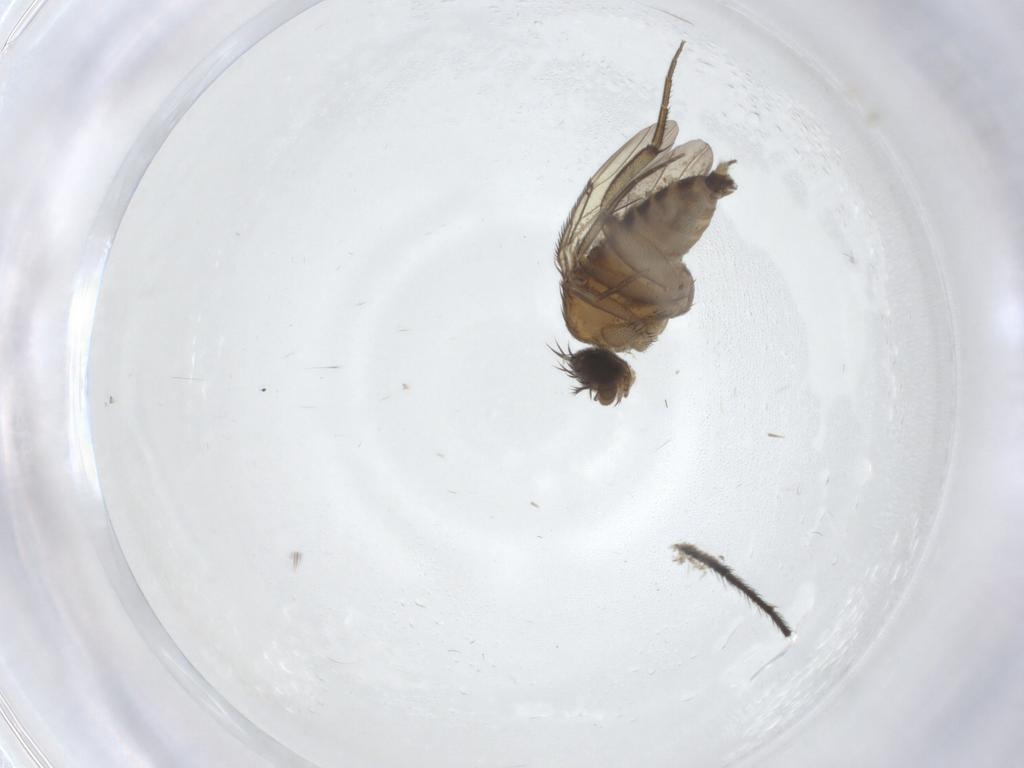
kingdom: Animalia
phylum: Arthropoda
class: Insecta
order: Diptera
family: Phoridae
